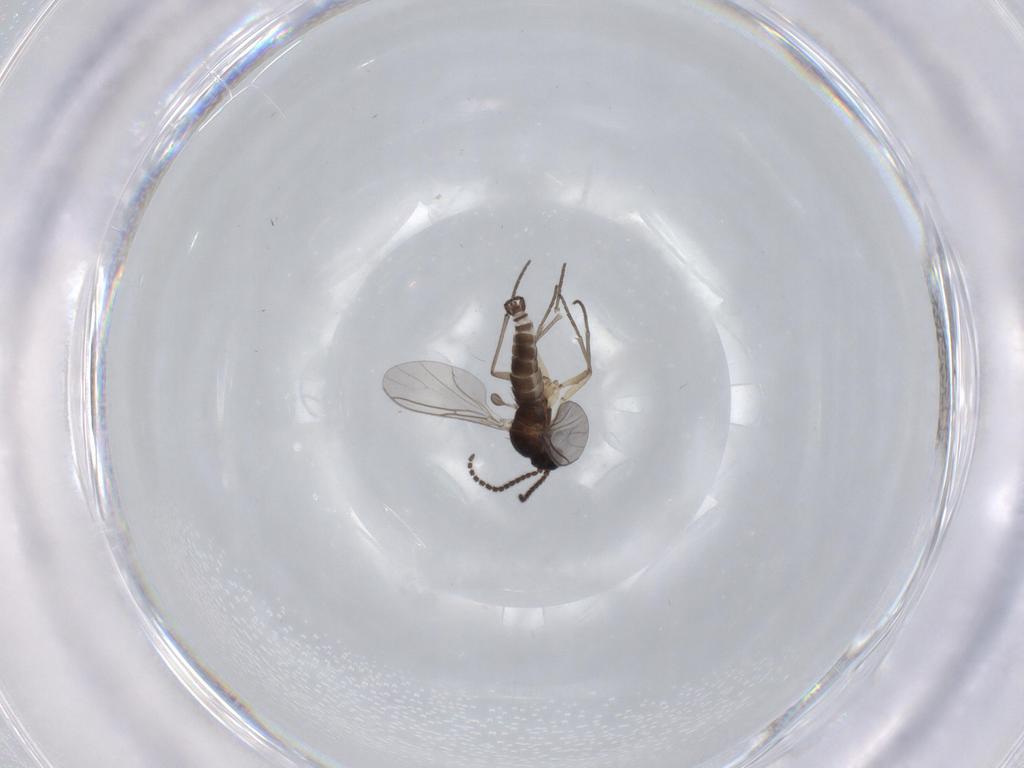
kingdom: Animalia
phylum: Arthropoda
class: Insecta
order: Diptera
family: Sciaridae
